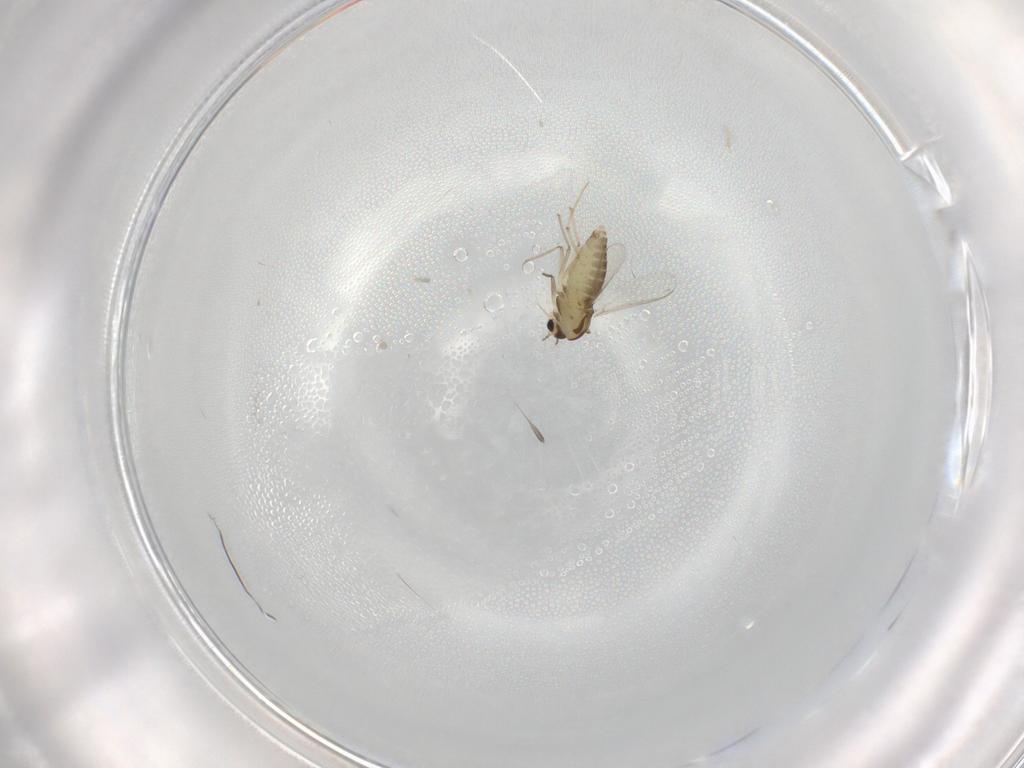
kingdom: Animalia
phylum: Arthropoda
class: Insecta
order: Diptera
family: Chironomidae
